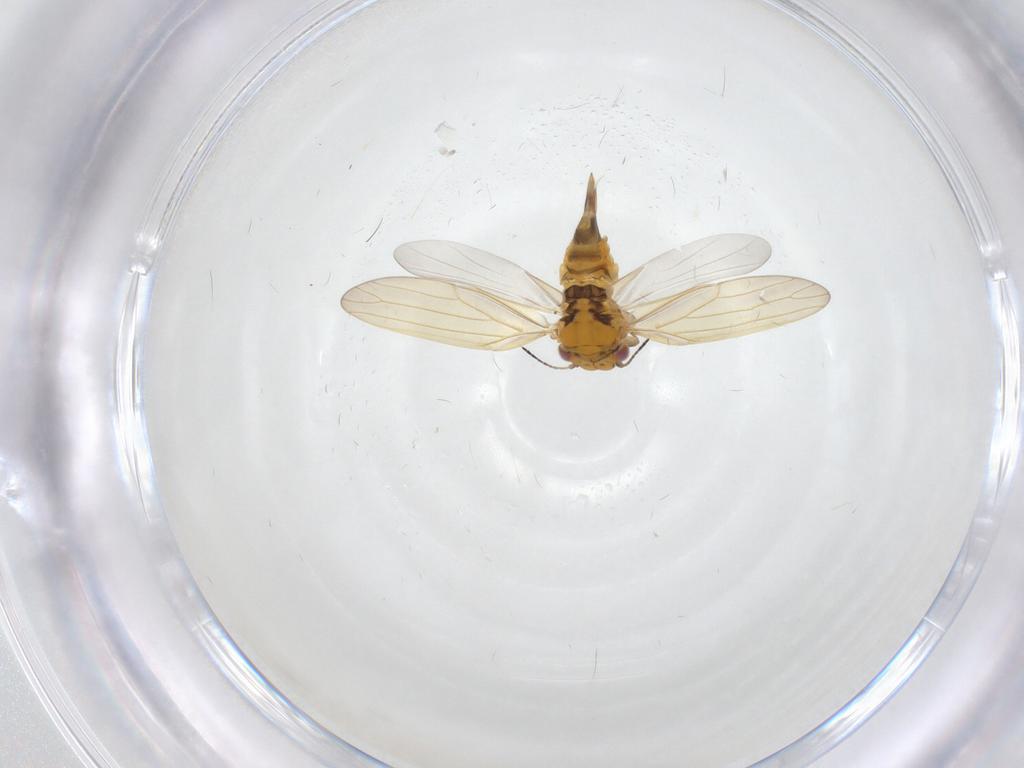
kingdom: Animalia
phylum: Arthropoda
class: Insecta
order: Hemiptera
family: Aphalaridae
